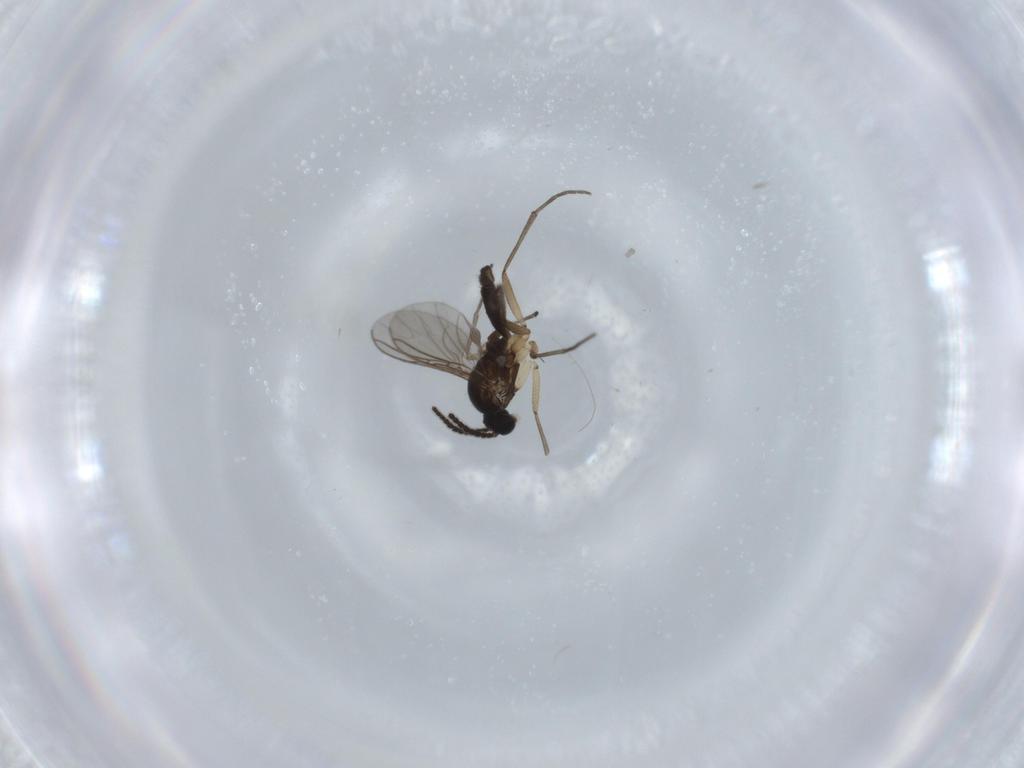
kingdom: Animalia
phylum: Arthropoda
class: Insecta
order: Diptera
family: Sciaridae
